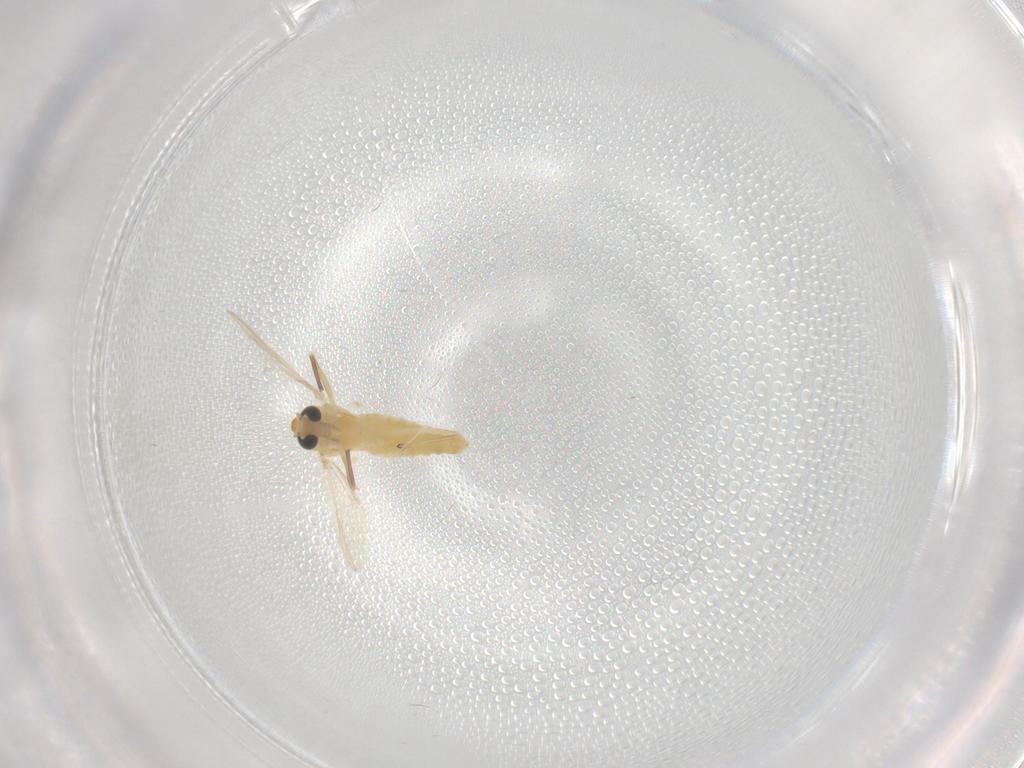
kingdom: Animalia
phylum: Arthropoda
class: Insecta
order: Diptera
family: Chironomidae
